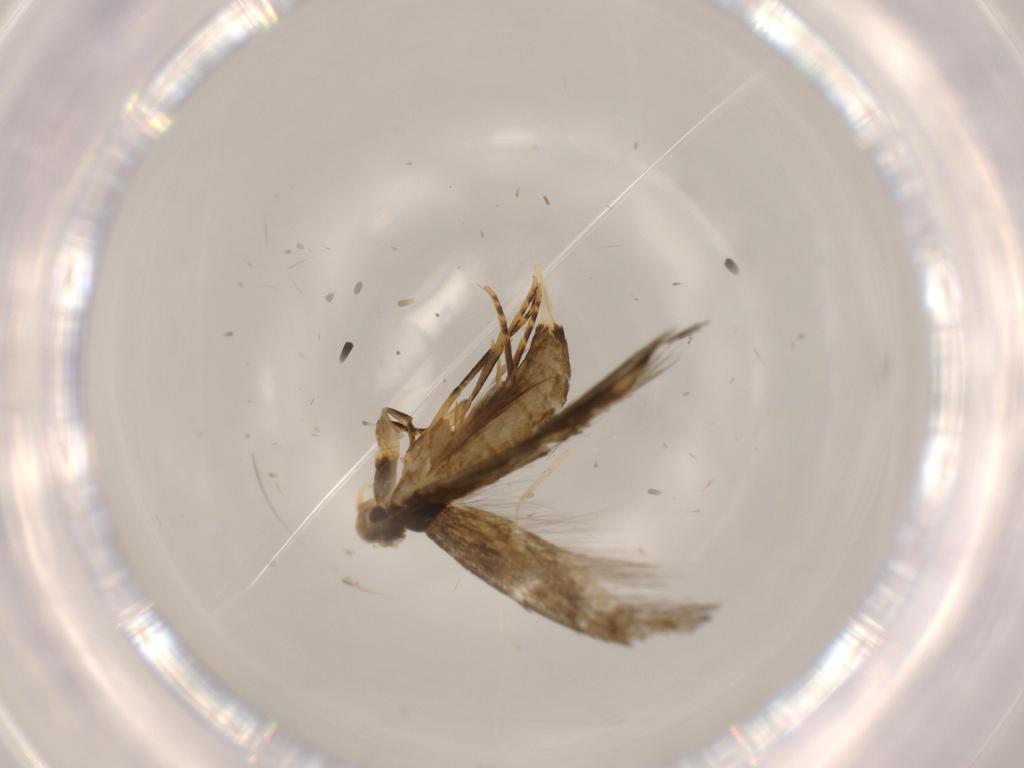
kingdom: Animalia
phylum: Arthropoda
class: Insecta
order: Lepidoptera
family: Tineidae
